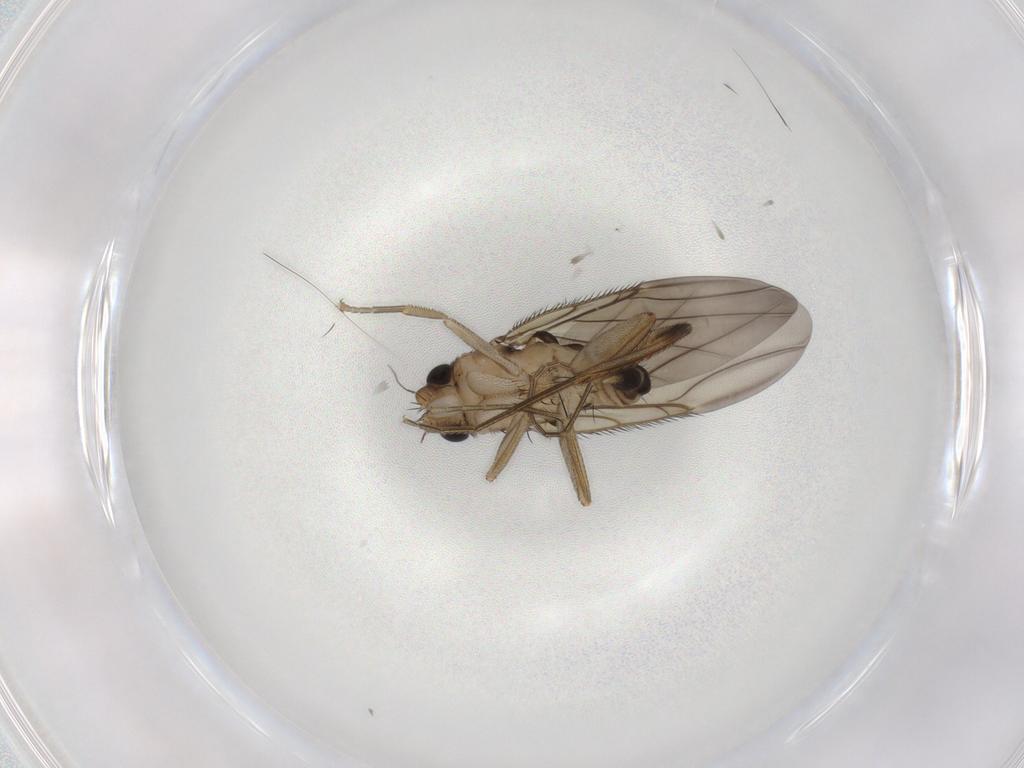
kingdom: Animalia
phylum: Arthropoda
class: Insecta
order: Diptera
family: Phoridae
